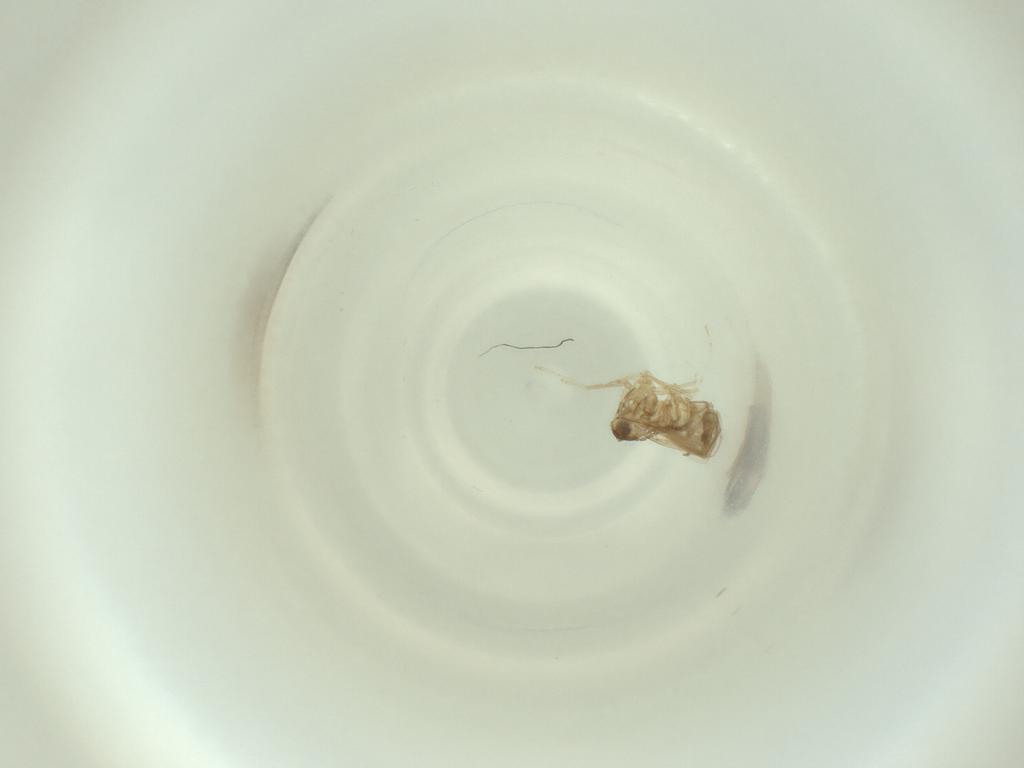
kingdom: Animalia
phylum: Arthropoda
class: Insecta
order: Diptera
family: Cecidomyiidae
